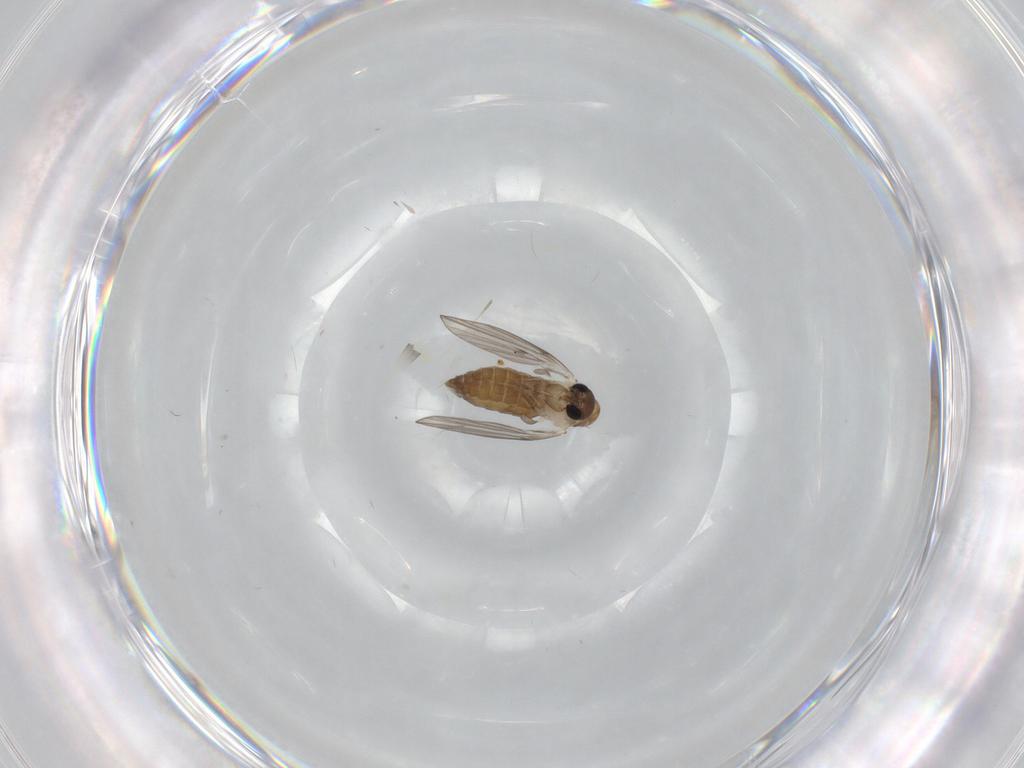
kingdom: Animalia
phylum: Arthropoda
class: Insecta
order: Diptera
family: Psychodidae
